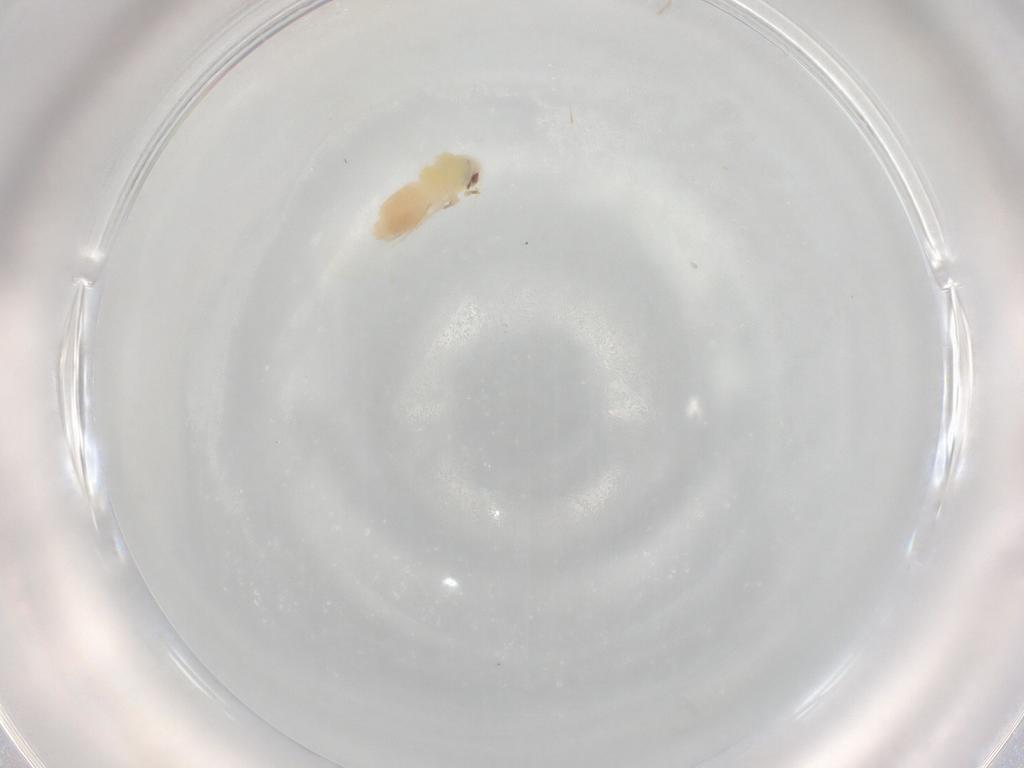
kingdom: Animalia
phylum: Arthropoda
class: Insecta
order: Hemiptera
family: Aleyrodidae
